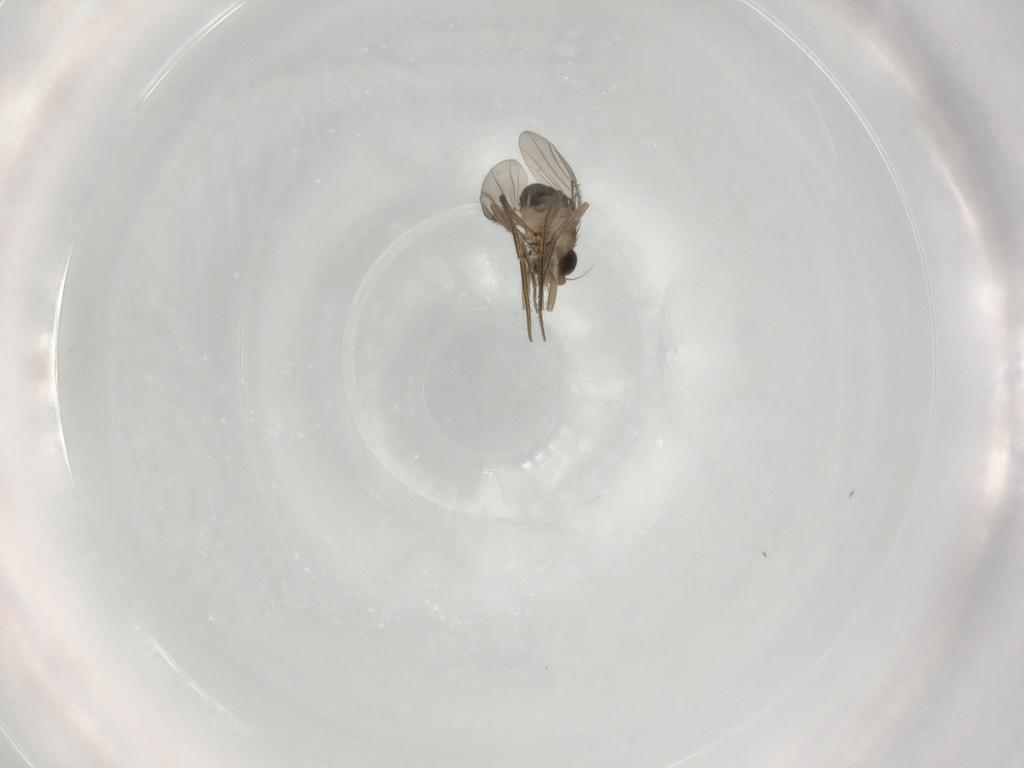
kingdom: Animalia
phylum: Arthropoda
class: Insecta
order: Diptera
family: Phoridae
